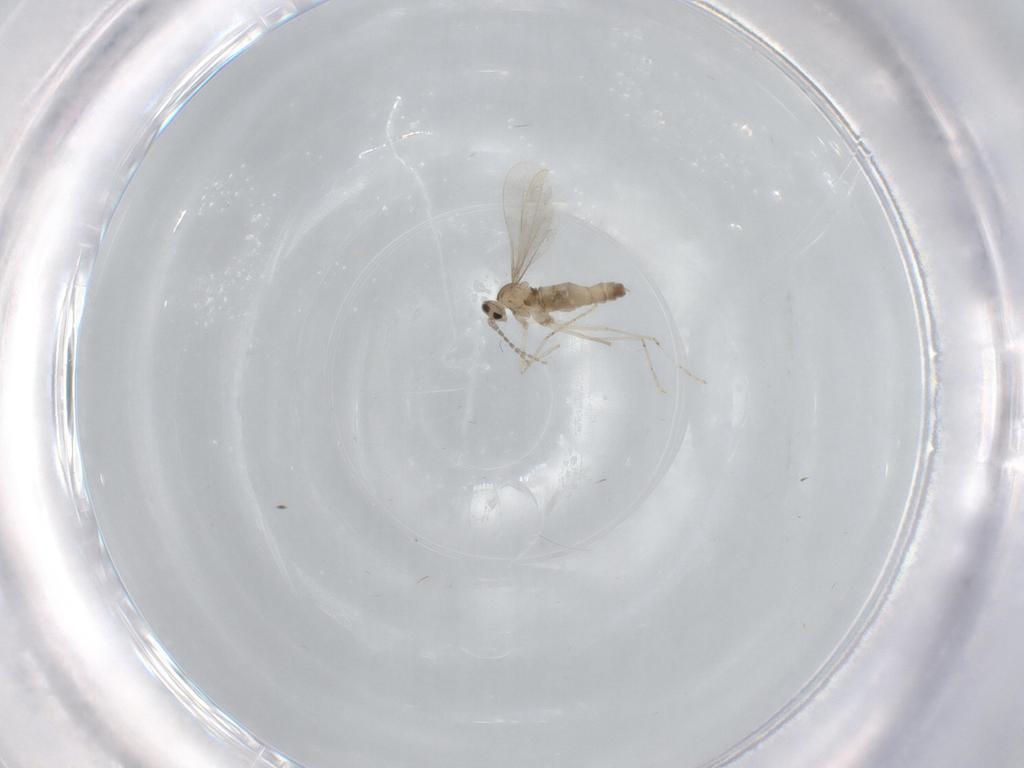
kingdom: Animalia
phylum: Arthropoda
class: Insecta
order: Diptera
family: Cecidomyiidae
